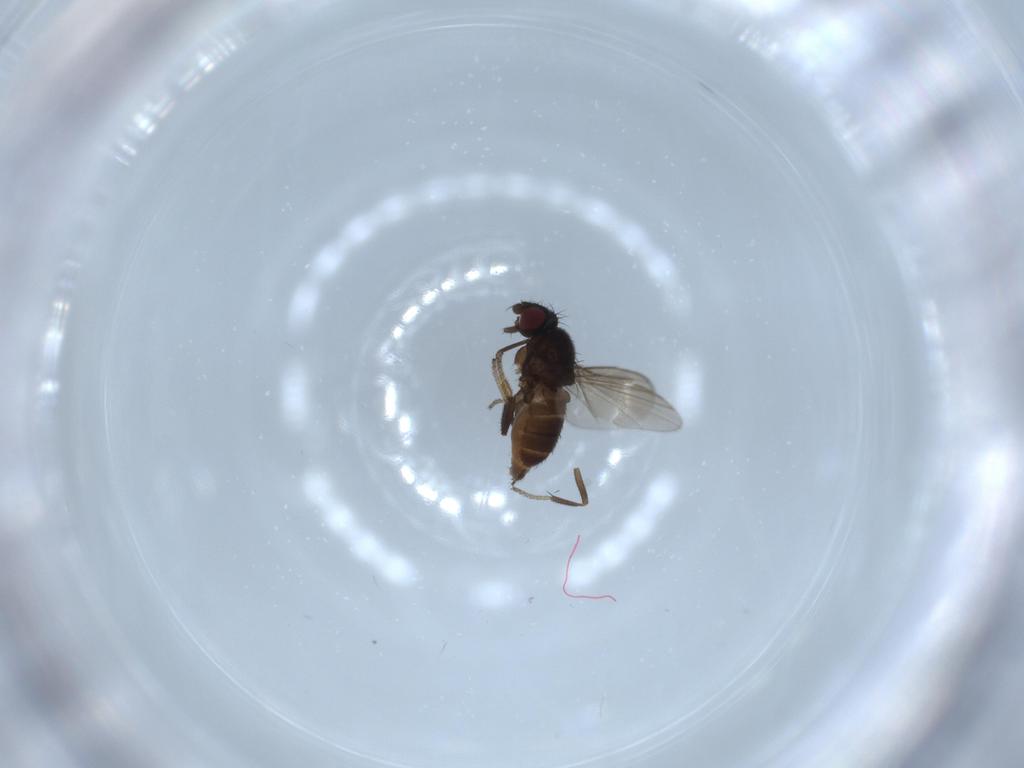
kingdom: Animalia
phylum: Arthropoda
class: Insecta
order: Diptera
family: Milichiidae
